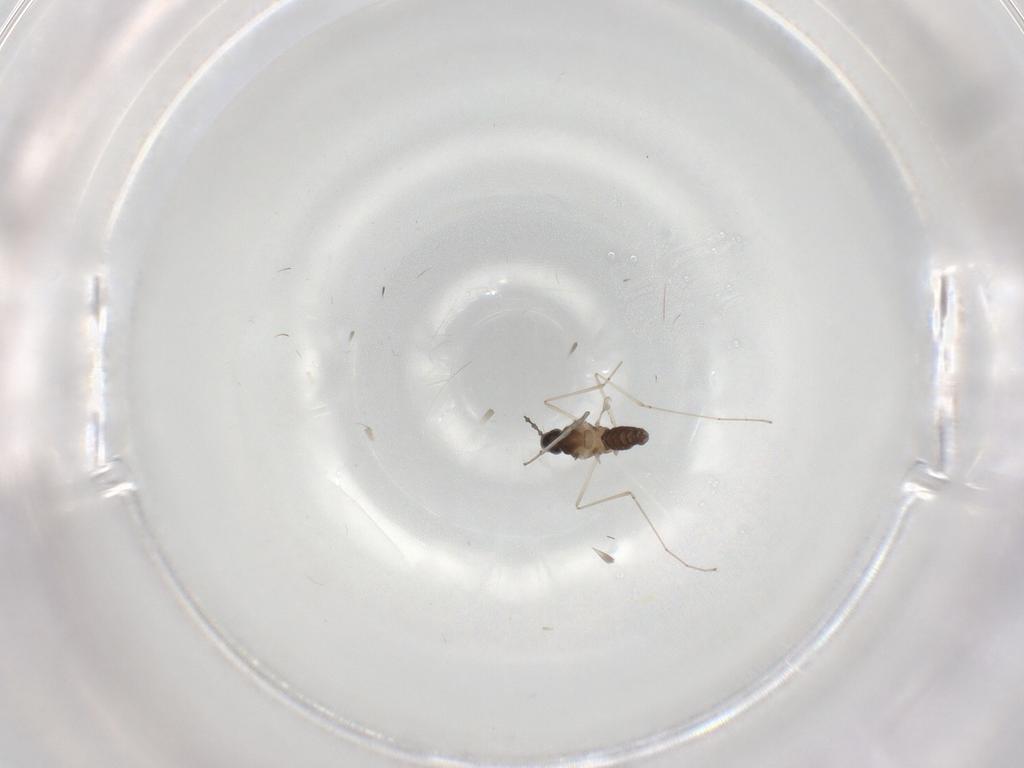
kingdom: Animalia
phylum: Arthropoda
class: Insecta
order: Diptera
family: Cecidomyiidae
